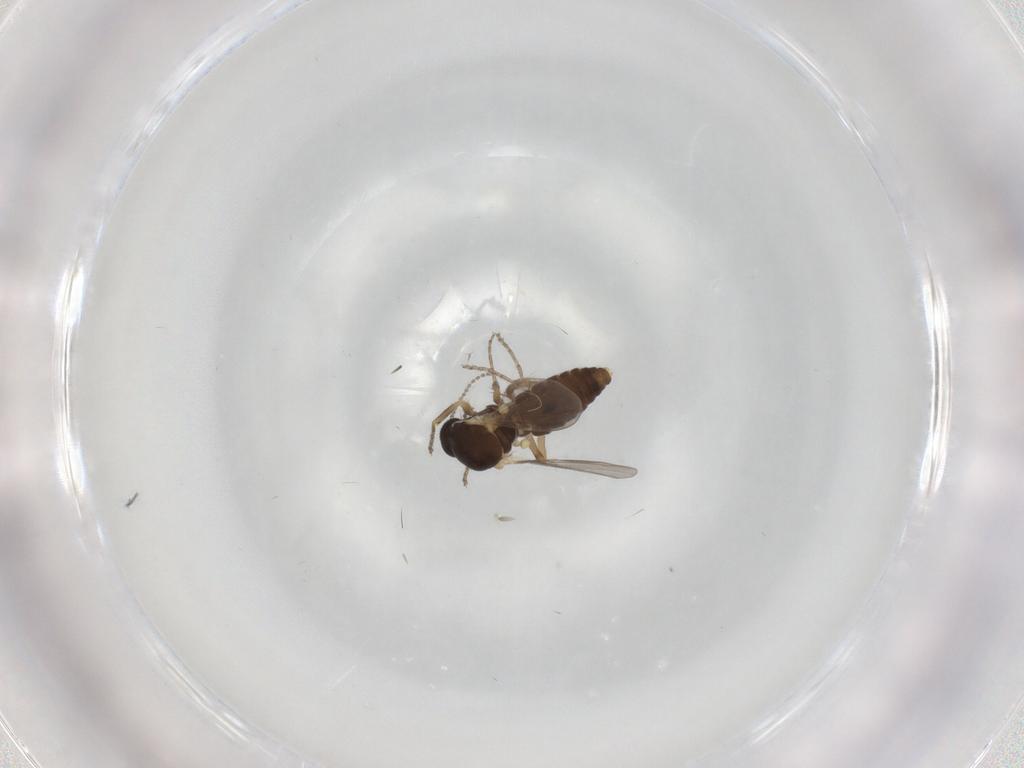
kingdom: Animalia
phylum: Arthropoda
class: Insecta
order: Diptera
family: Ceratopogonidae
